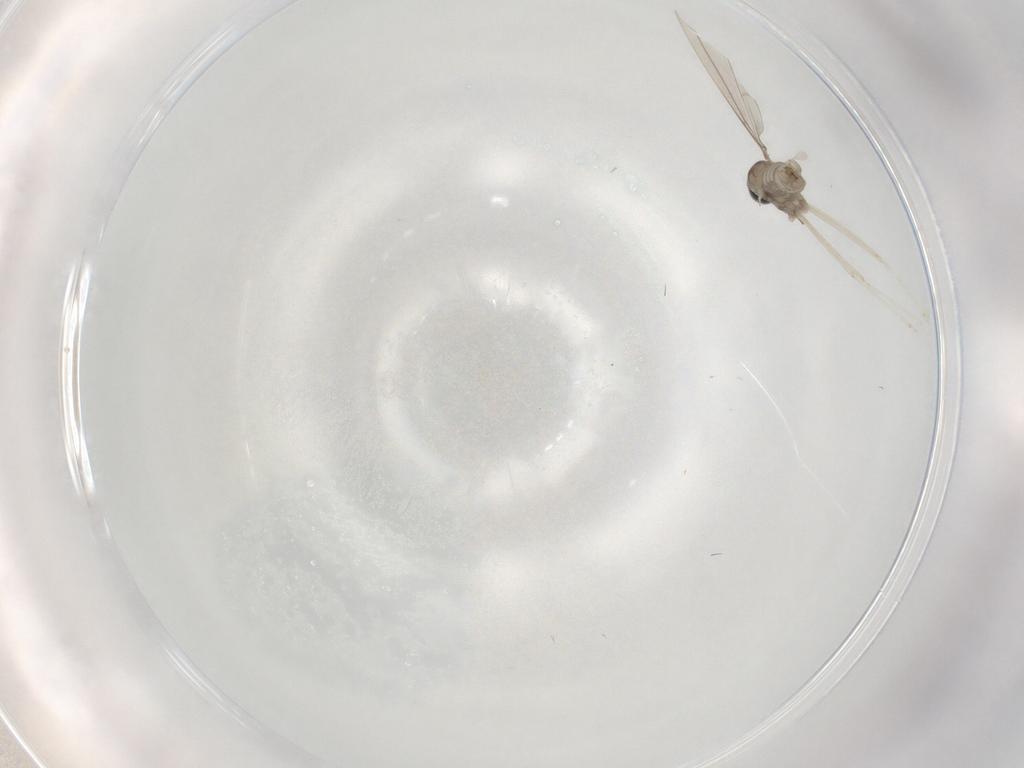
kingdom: Animalia
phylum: Arthropoda
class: Insecta
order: Diptera
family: Cecidomyiidae
